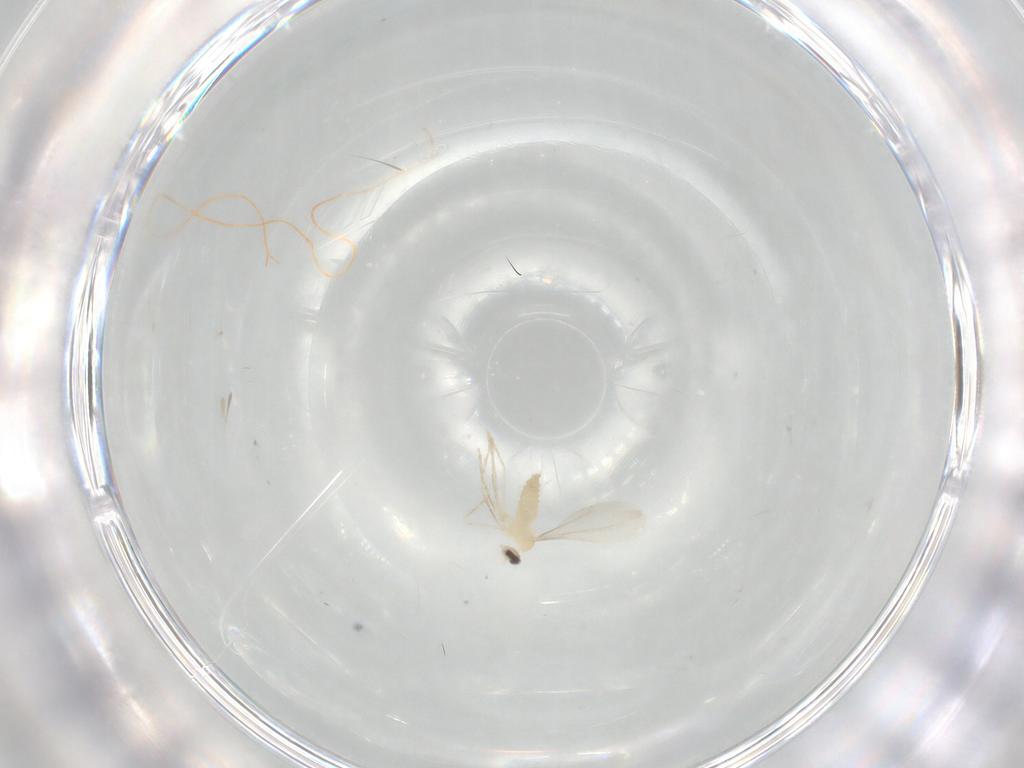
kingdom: Animalia
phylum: Arthropoda
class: Insecta
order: Diptera
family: Cecidomyiidae
